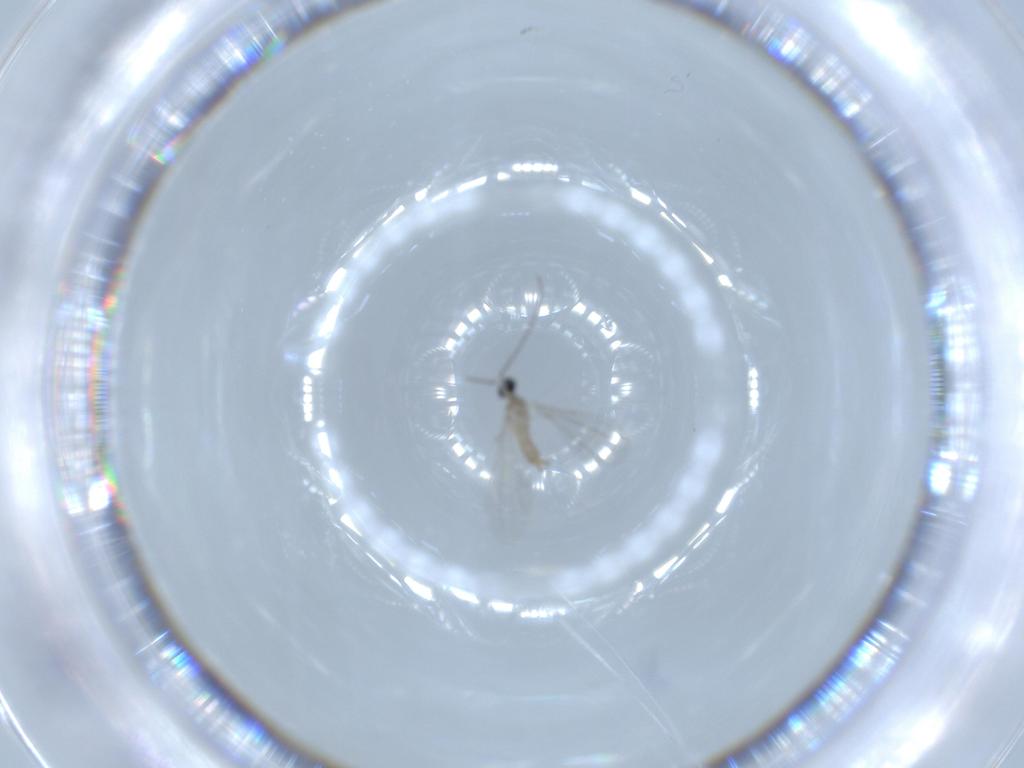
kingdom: Animalia
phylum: Arthropoda
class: Insecta
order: Diptera
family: Cecidomyiidae
